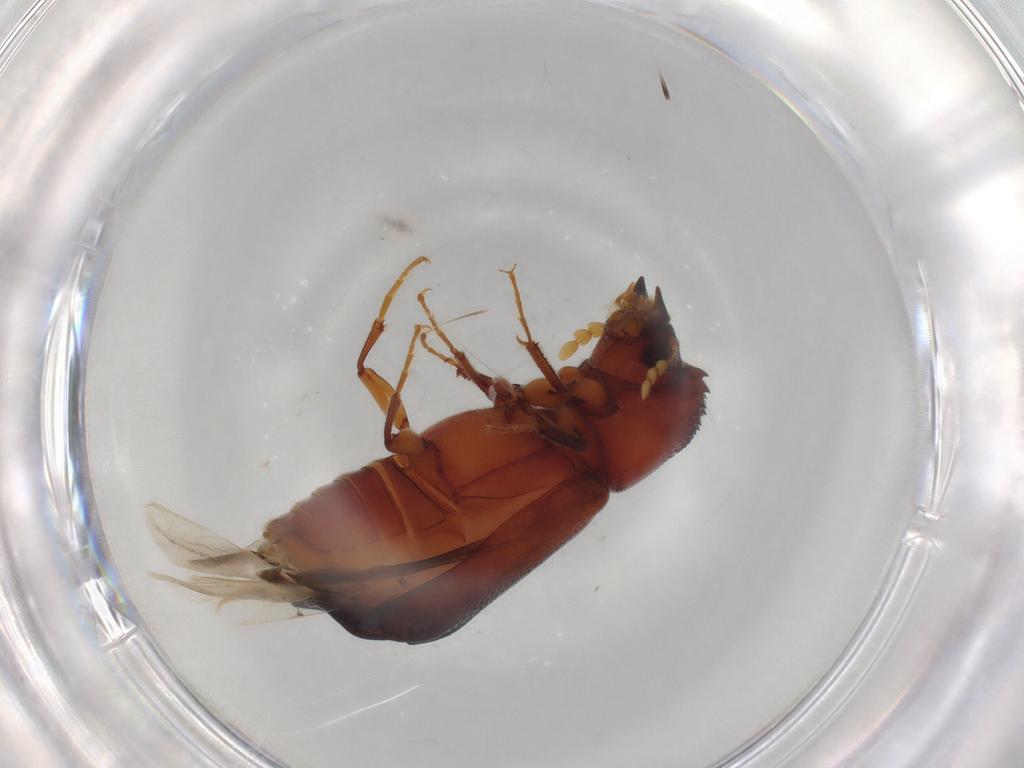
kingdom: Animalia
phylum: Arthropoda
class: Insecta
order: Coleoptera
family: Bostrichidae
